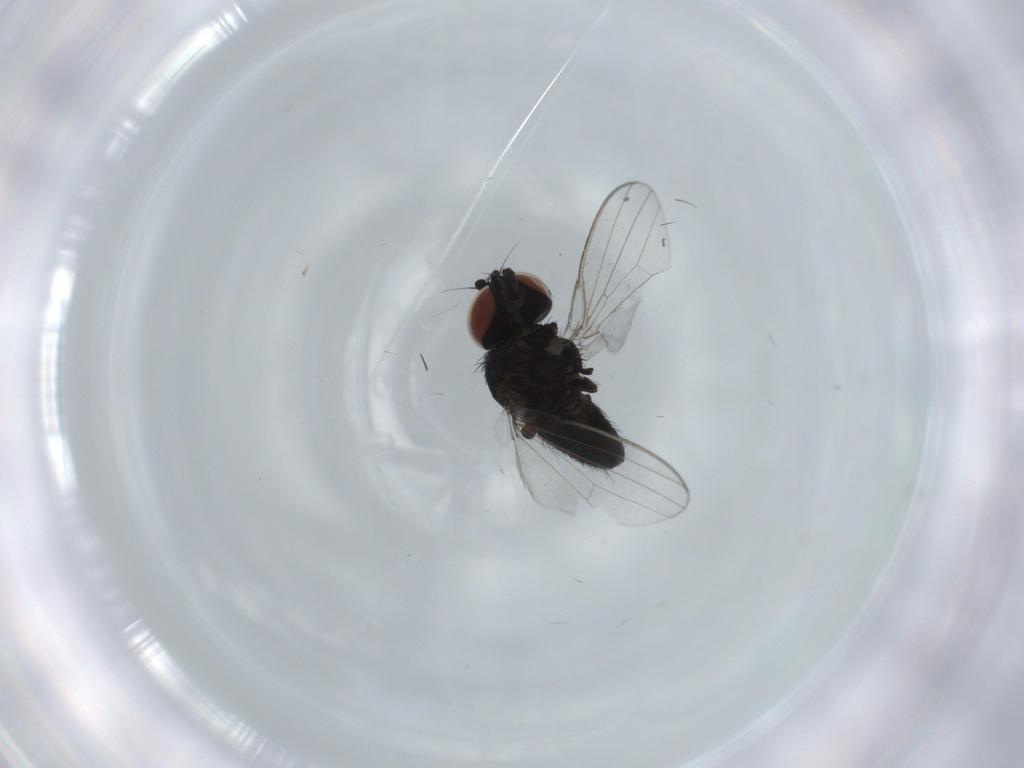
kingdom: Animalia
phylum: Arthropoda
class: Insecta
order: Diptera
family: Milichiidae
